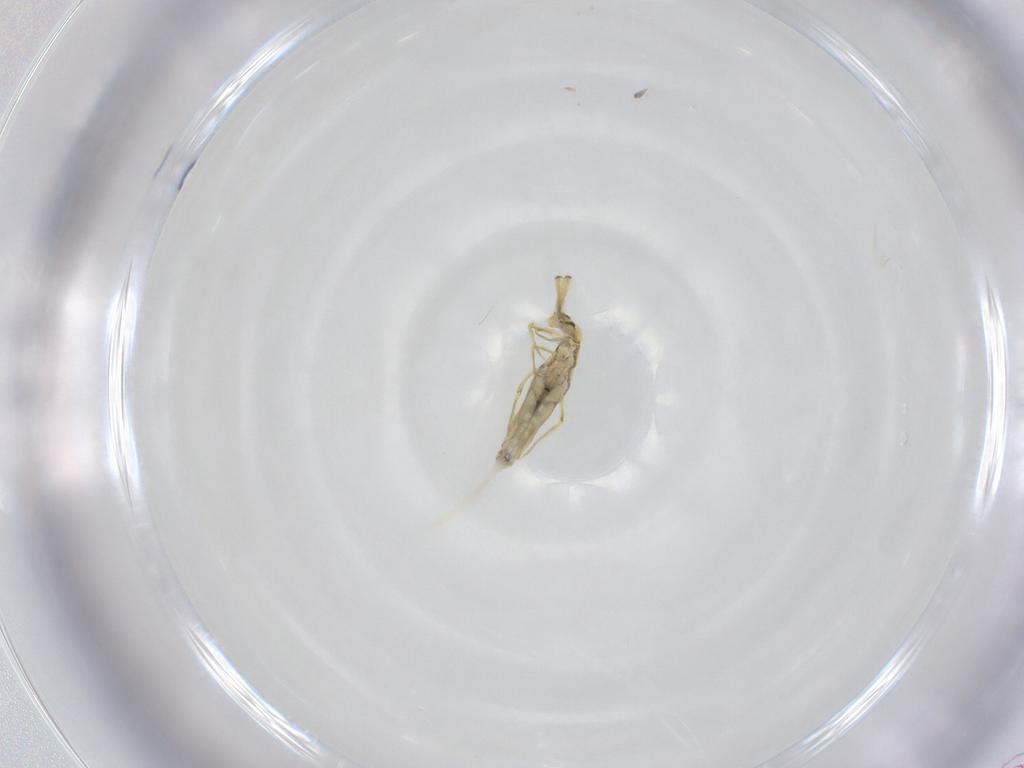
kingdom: Animalia
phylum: Arthropoda
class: Collembola
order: Entomobryomorpha
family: Paronellidae
